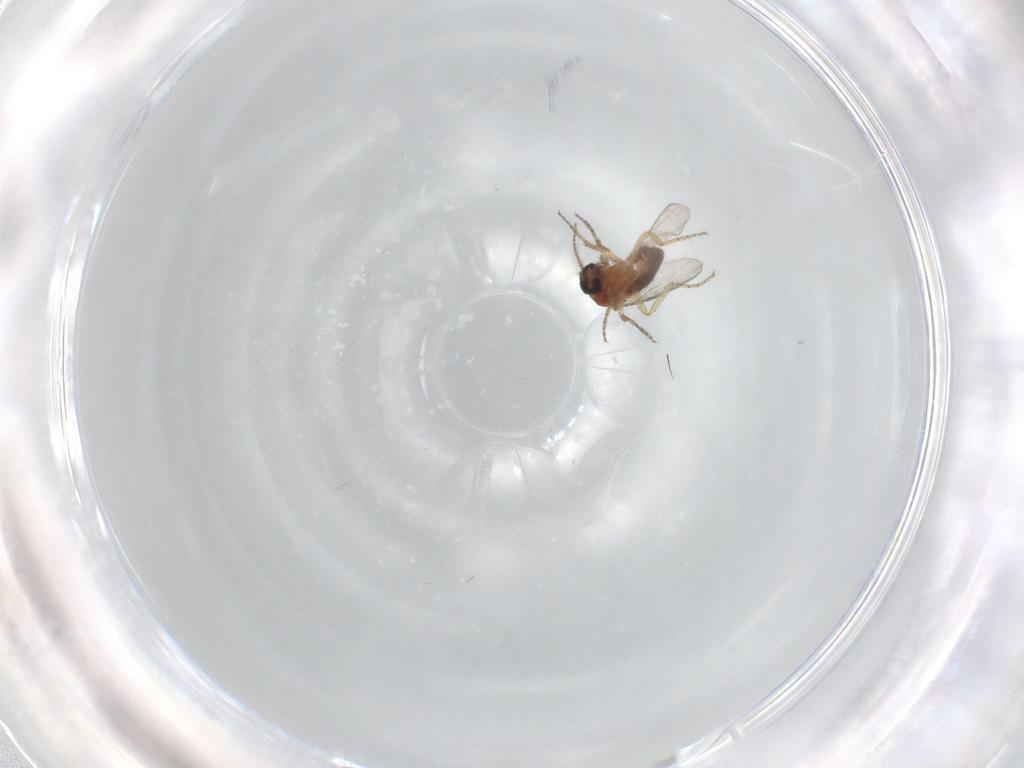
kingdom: Animalia
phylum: Arthropoda
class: Insecta
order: Diptera
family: Ceratopogonidae
